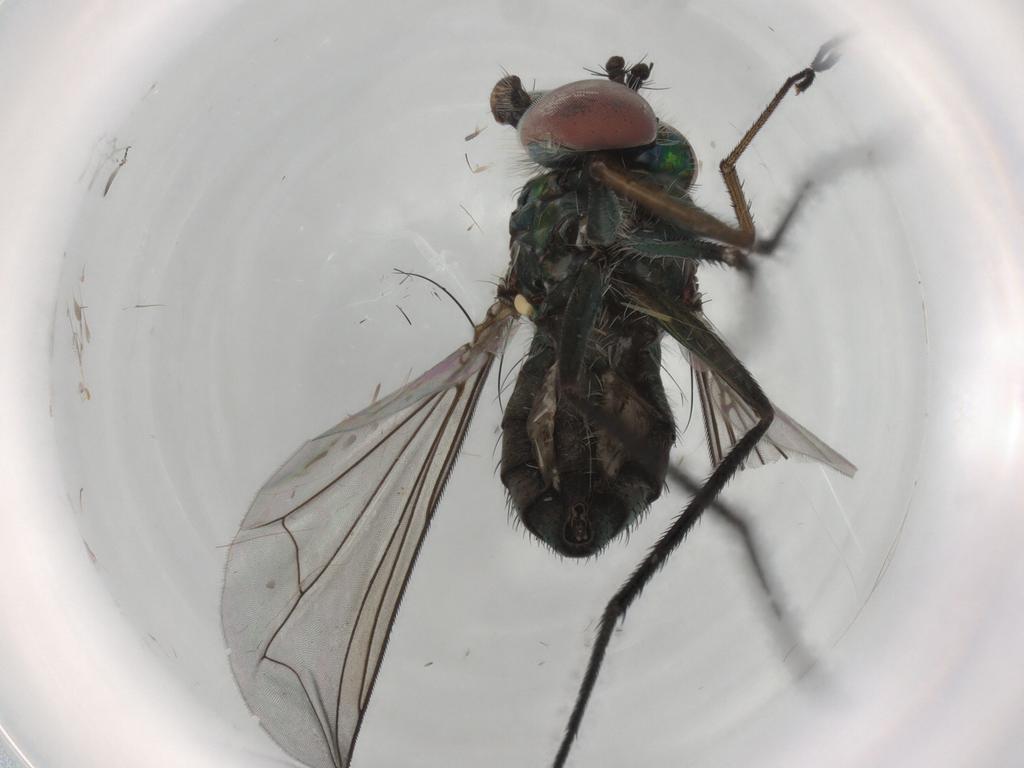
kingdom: Animalia
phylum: Arthropoda
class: Insecta
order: Diptera
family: Dolichopodidae
